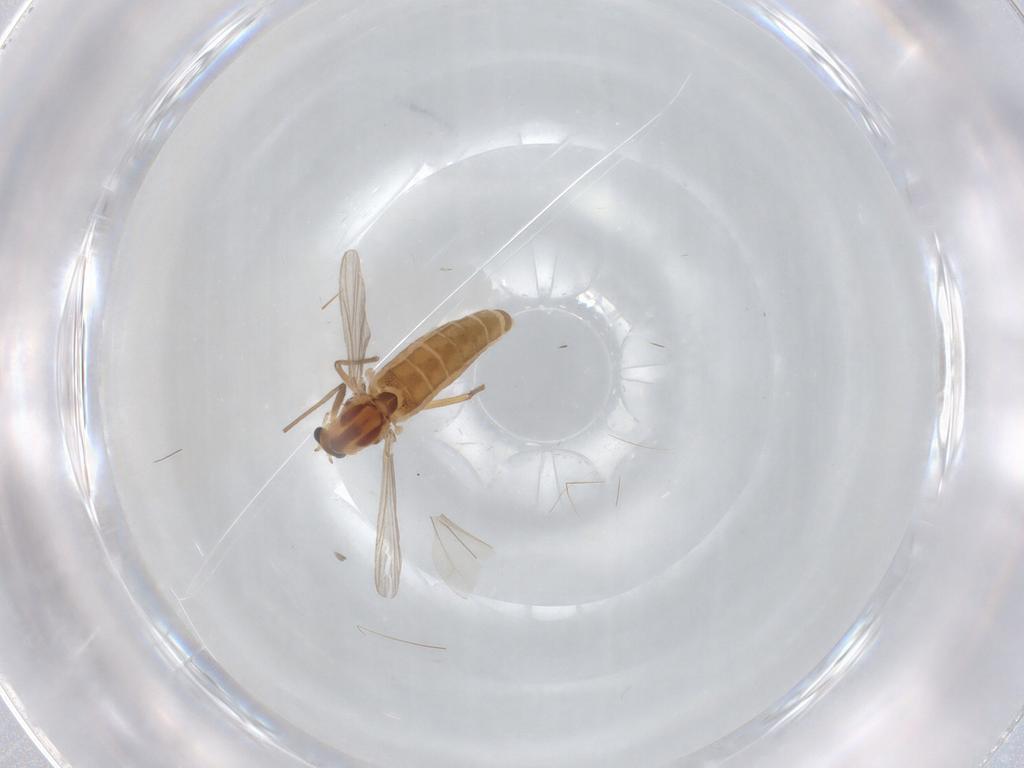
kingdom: Animalia
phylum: Arthropoda
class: Insecta
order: Diptera
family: Chironomidae
